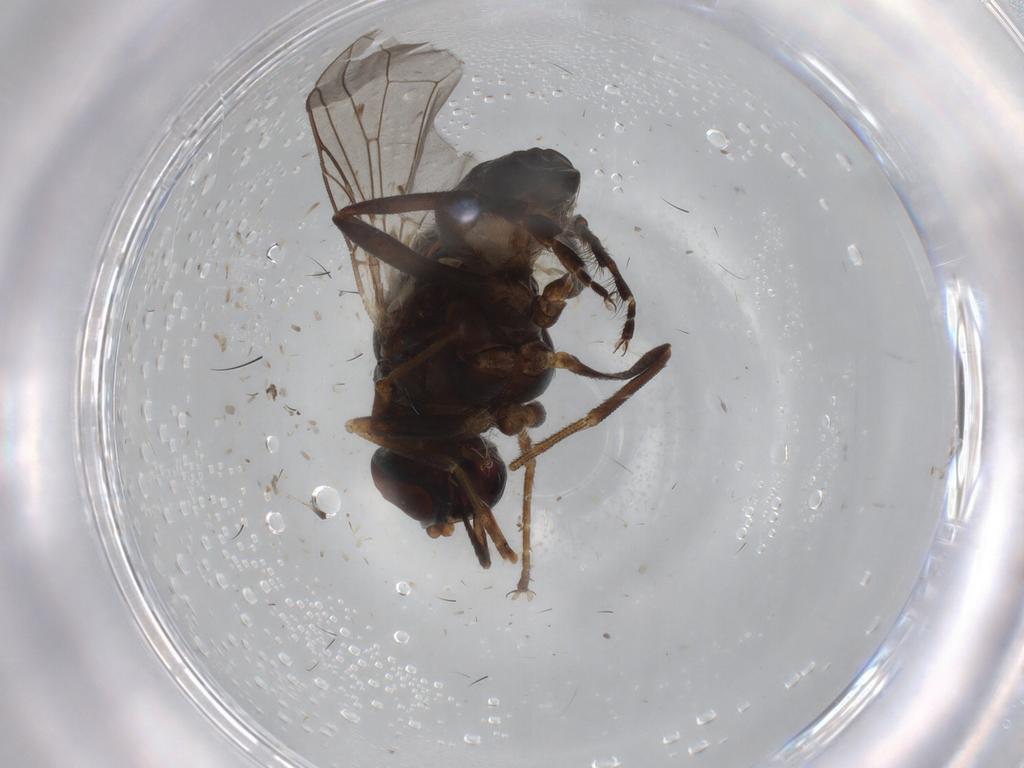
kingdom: Animalia
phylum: Arthropoda
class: Insecta
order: Diptera
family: Glossinidae
